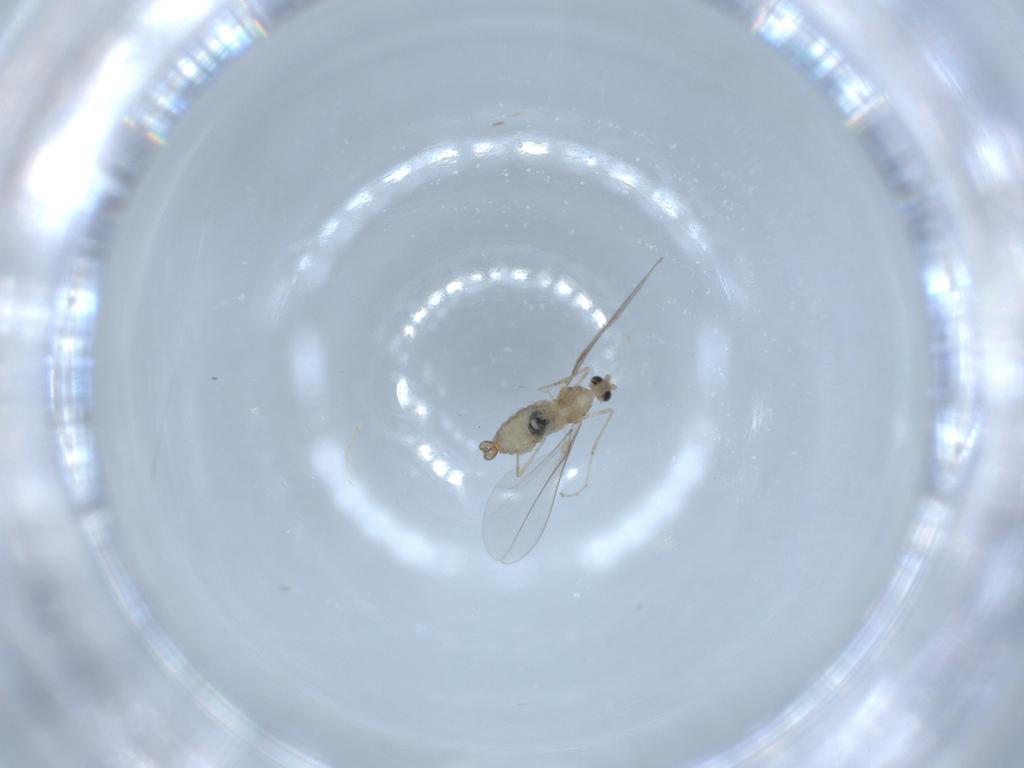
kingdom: Animalia
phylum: Arthropoda
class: Insecta
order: Diptera
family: Cecidomyiidae
